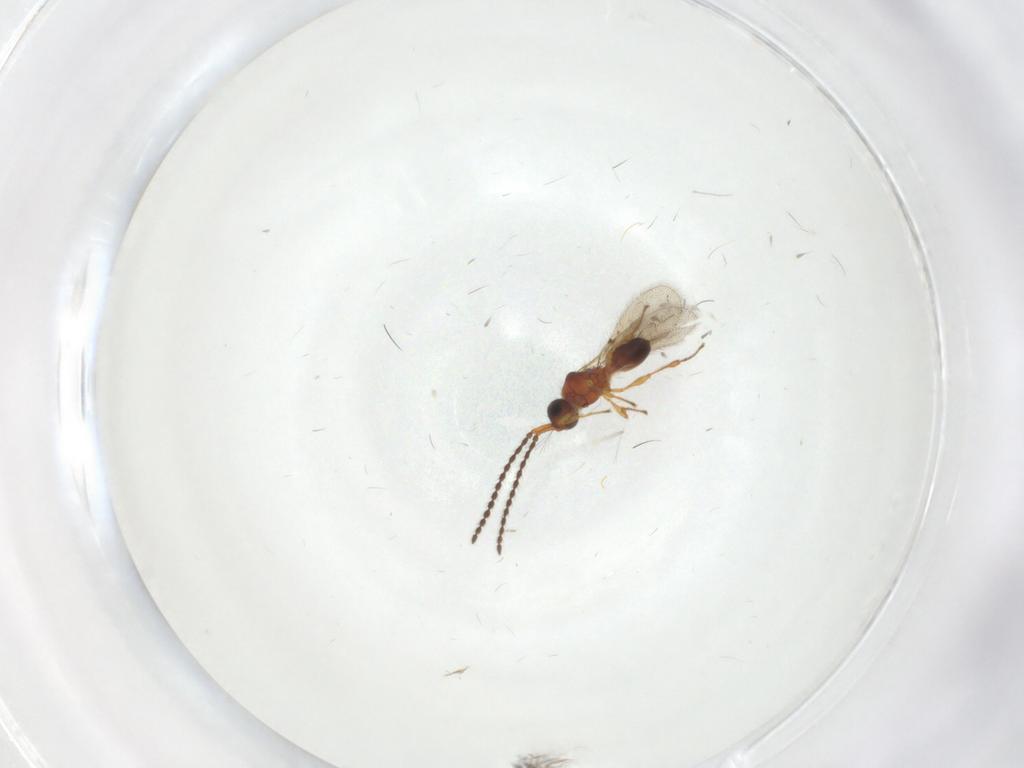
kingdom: Animalia
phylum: Arthropoda
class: Insecta
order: Hymenoptera
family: Diapriidae
